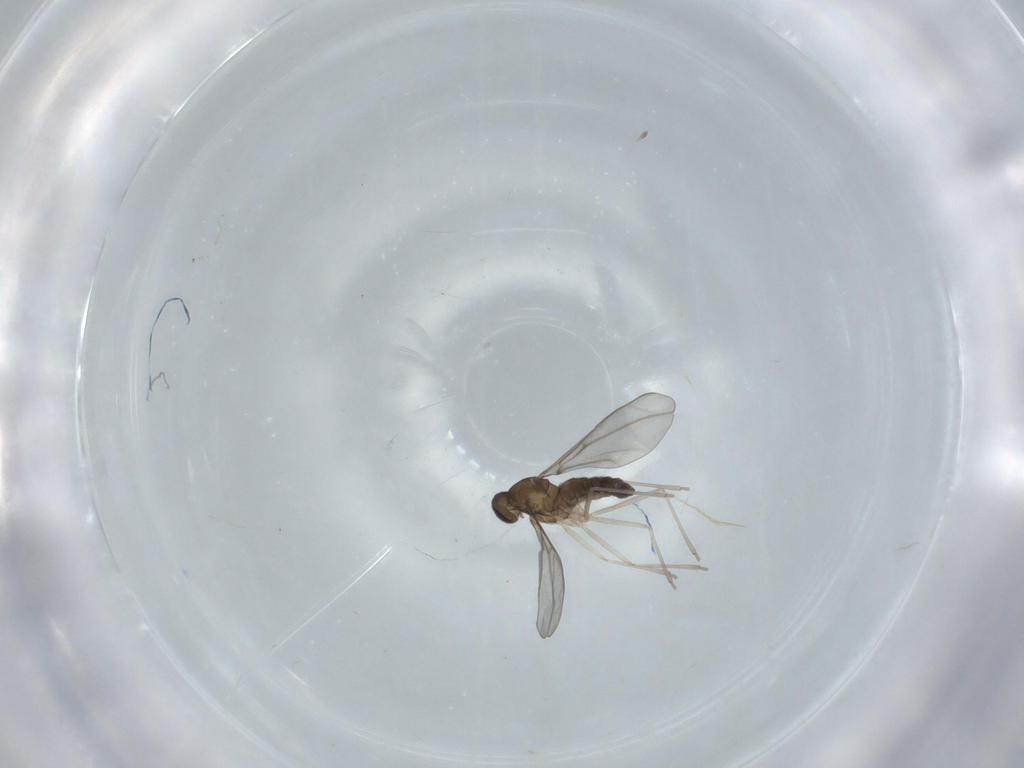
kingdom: Animalia
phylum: Arthropoda
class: Insecta
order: Diptera
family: Cecidomyiidae
